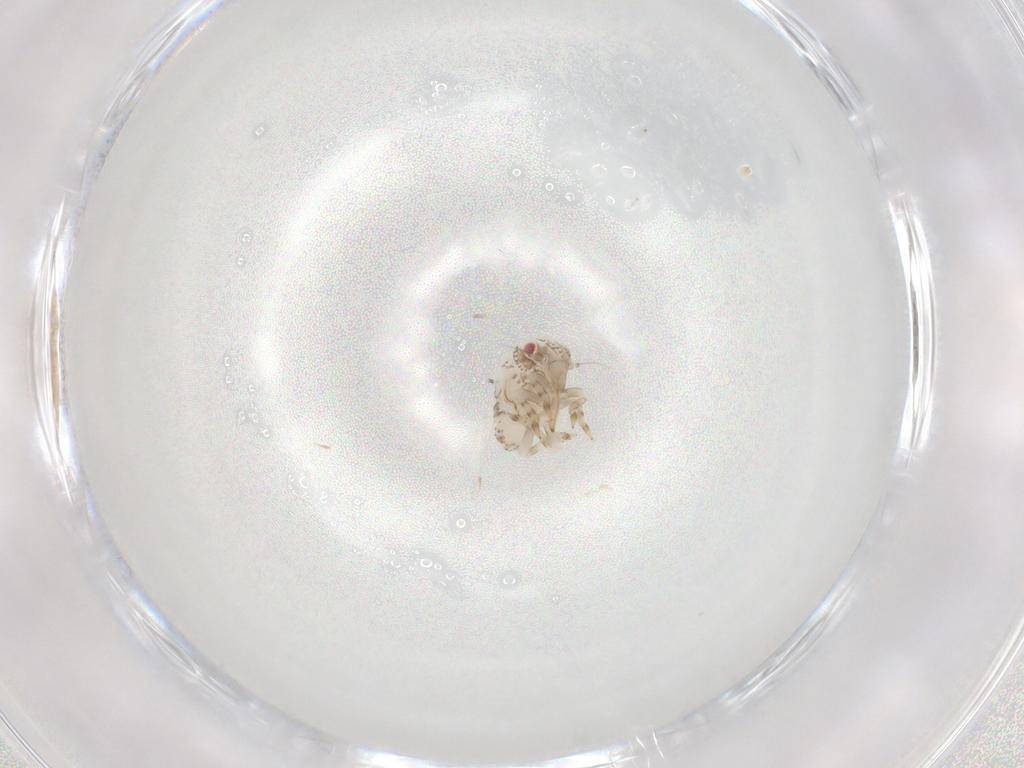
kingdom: Animalia
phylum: Arthropoda
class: Insecta
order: Hemiptera
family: Acanaloniidae
